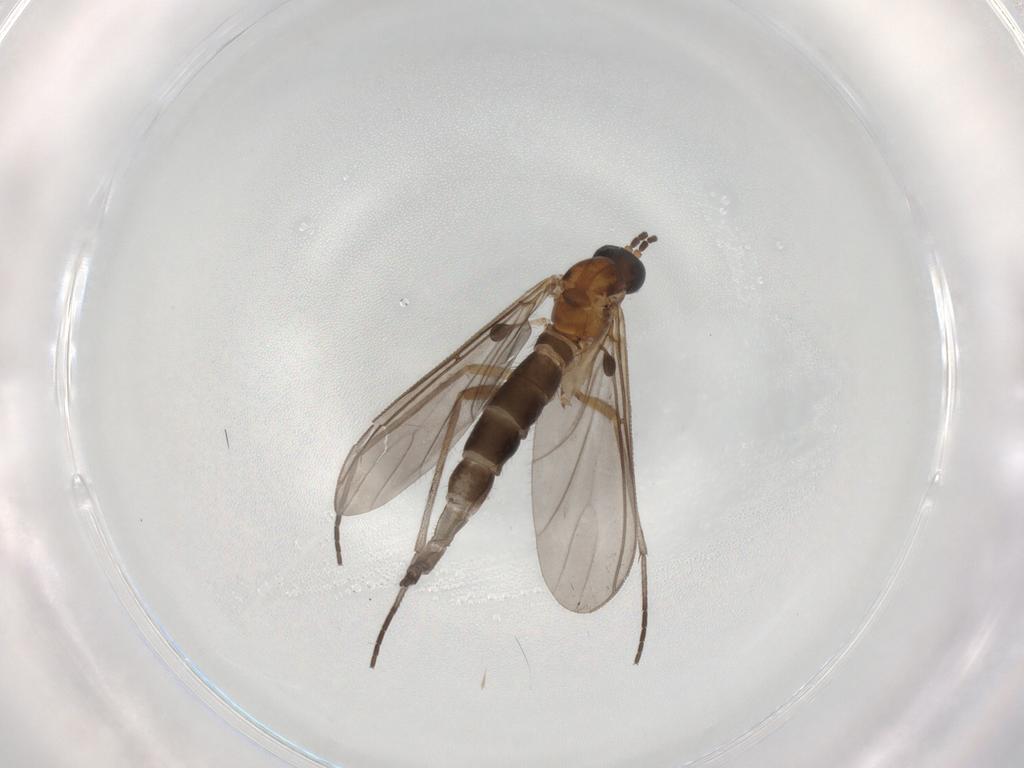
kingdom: Animalia
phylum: Arthropoda
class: Insecta
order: Diptera
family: Sciaridae
